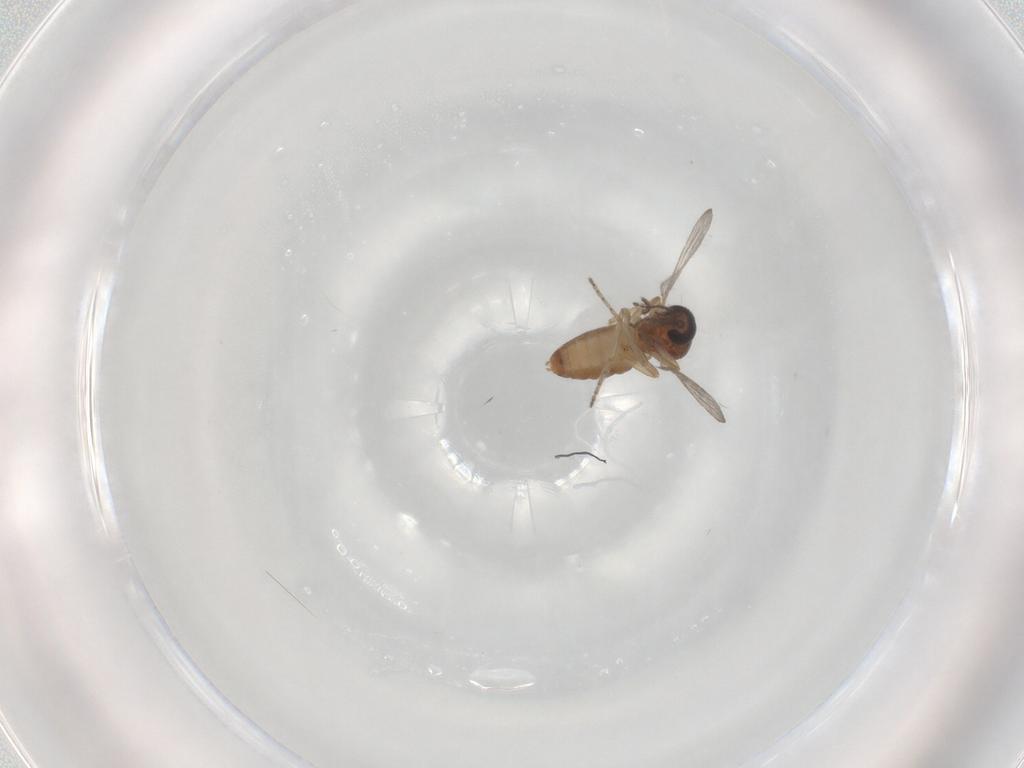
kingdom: Animalia
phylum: Arthropoda
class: Insecta
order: Diptera
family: Ceratopogonidae
